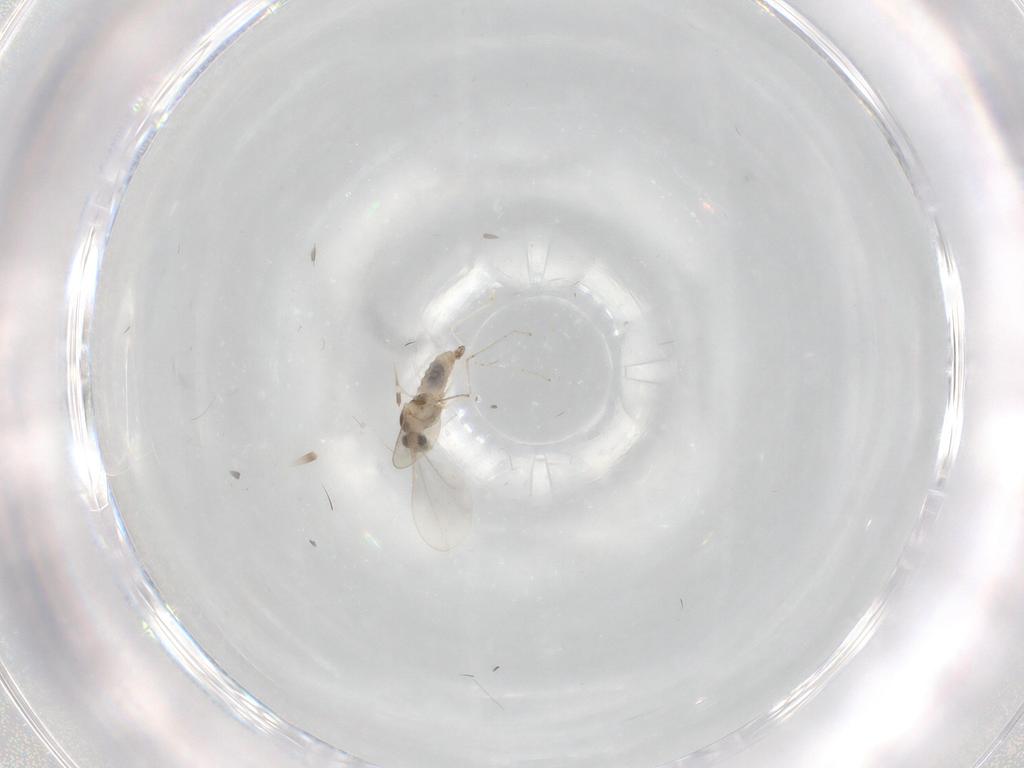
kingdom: Animalia
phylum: Arthropoda
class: Insecta
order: Diptera
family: Cecidomyiidae
